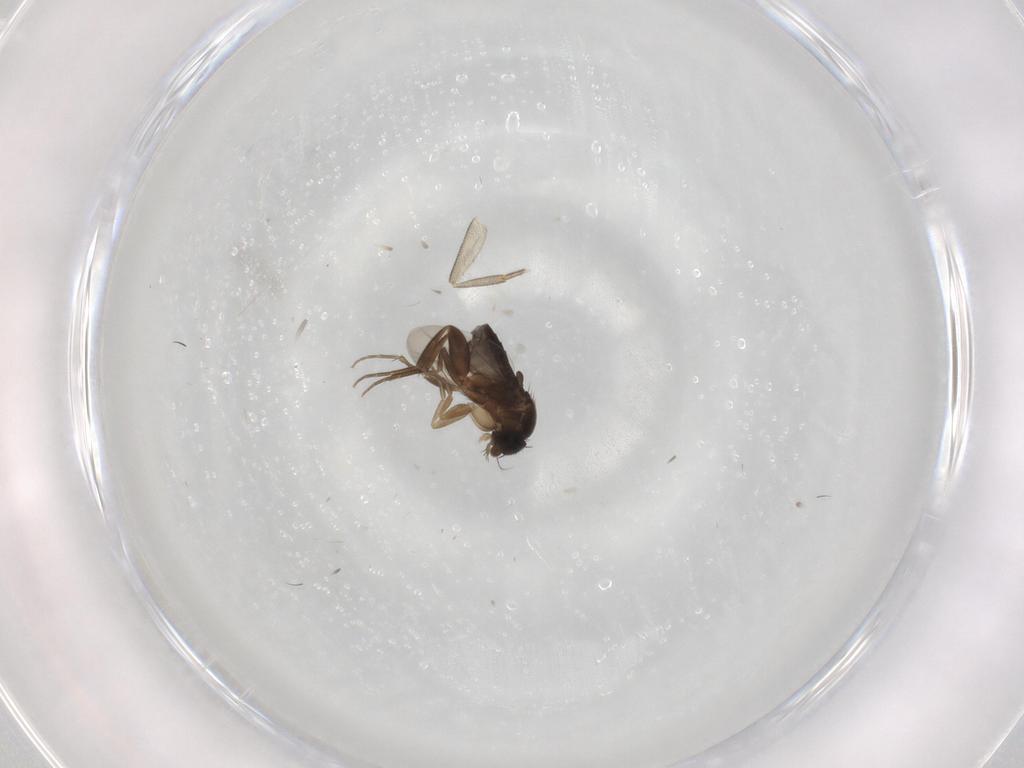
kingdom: Animalia
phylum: Arthropoda
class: Insecta
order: Diptera
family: Phoridae
